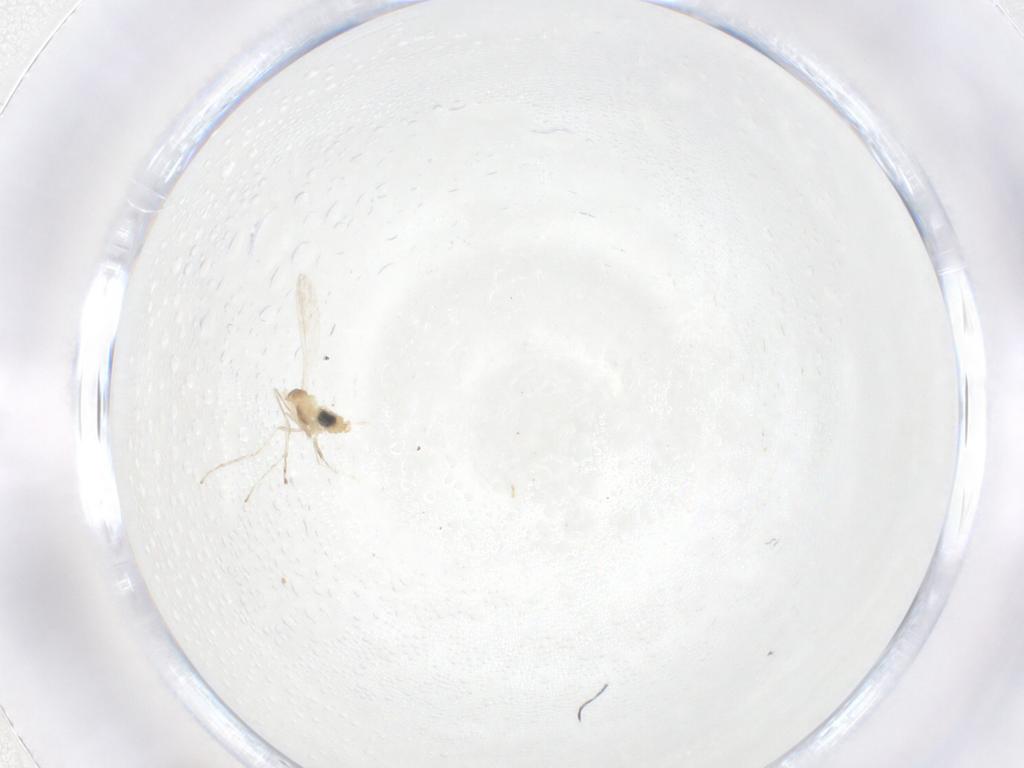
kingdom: Animalia
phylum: Arthropoda
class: Insecta
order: Diptera
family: Cecidomyiidae
